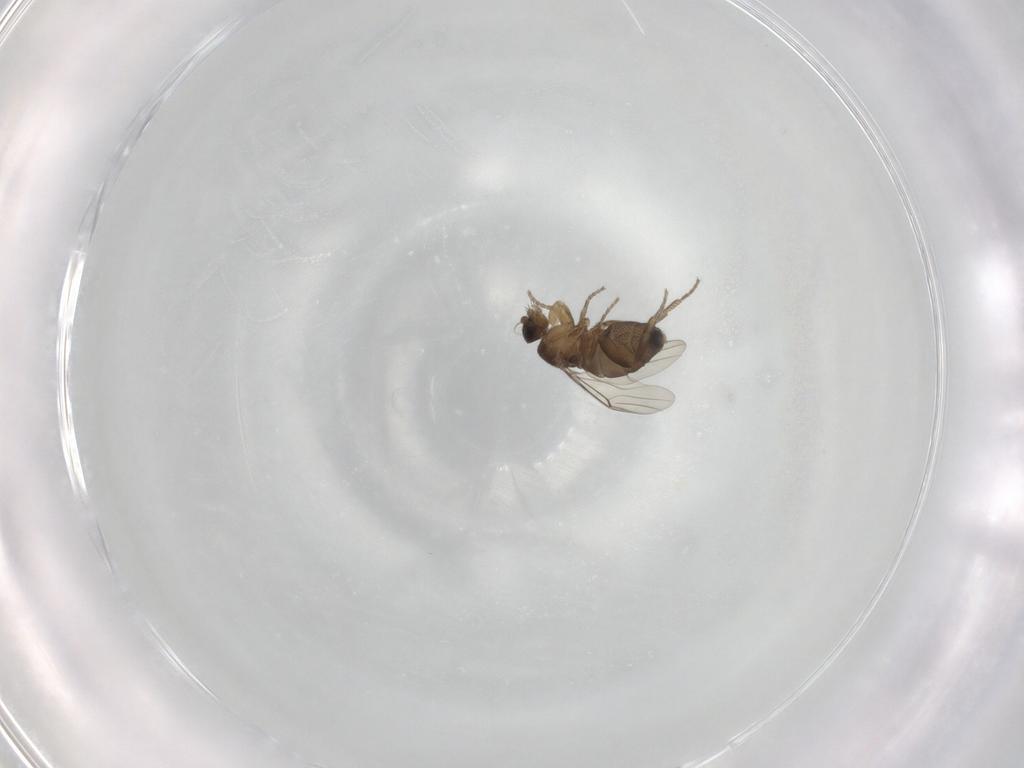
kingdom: Animalia
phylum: Arthropoda
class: Insecta
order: Diptera
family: Phoridae
